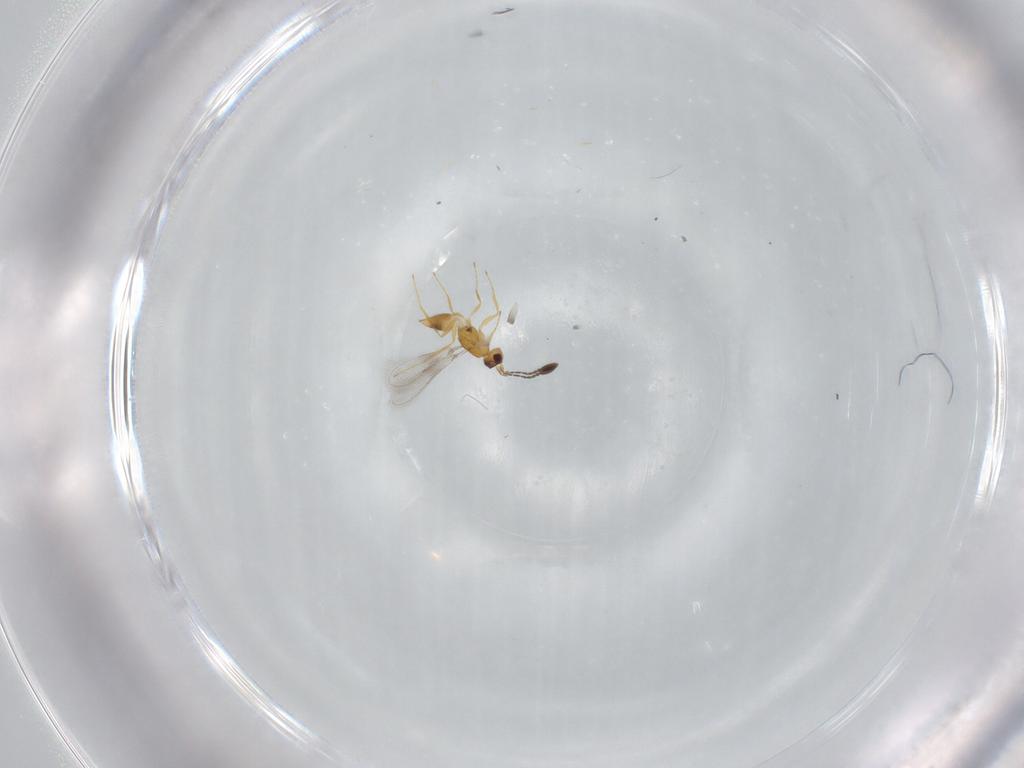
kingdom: Animalia
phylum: Arthropoda
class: Insecta
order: Hymenoptera
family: Mymaridae
